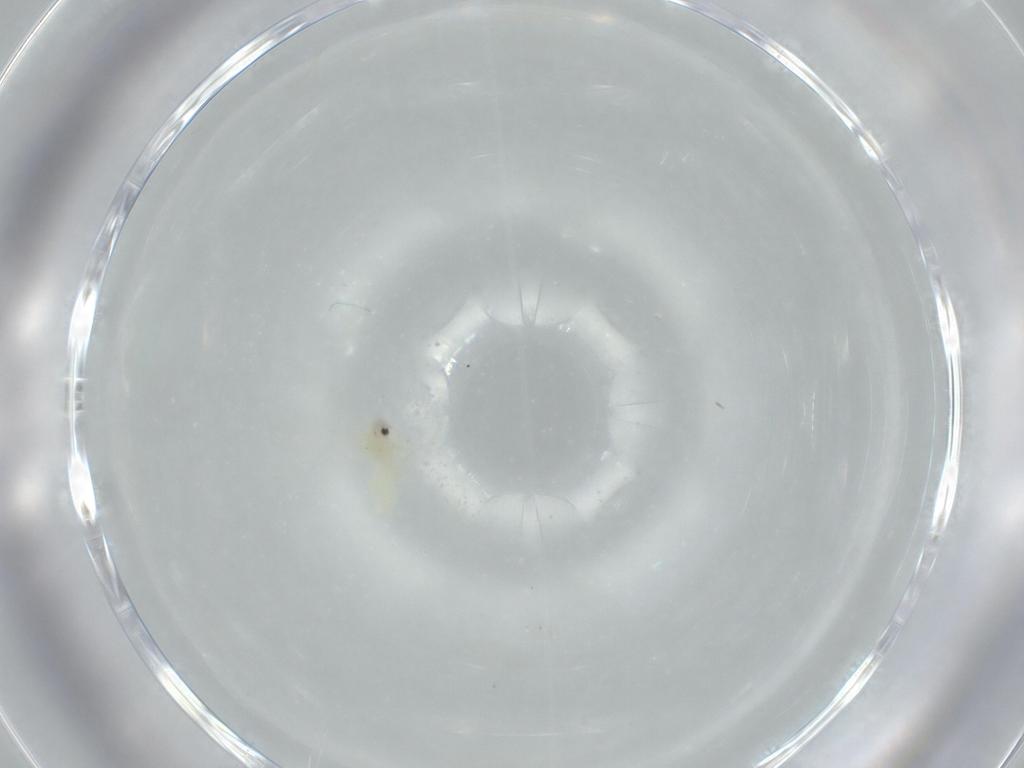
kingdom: Animalia
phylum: Arthropoda
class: Insecta
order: Hemiptera
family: Aleyrodidae
